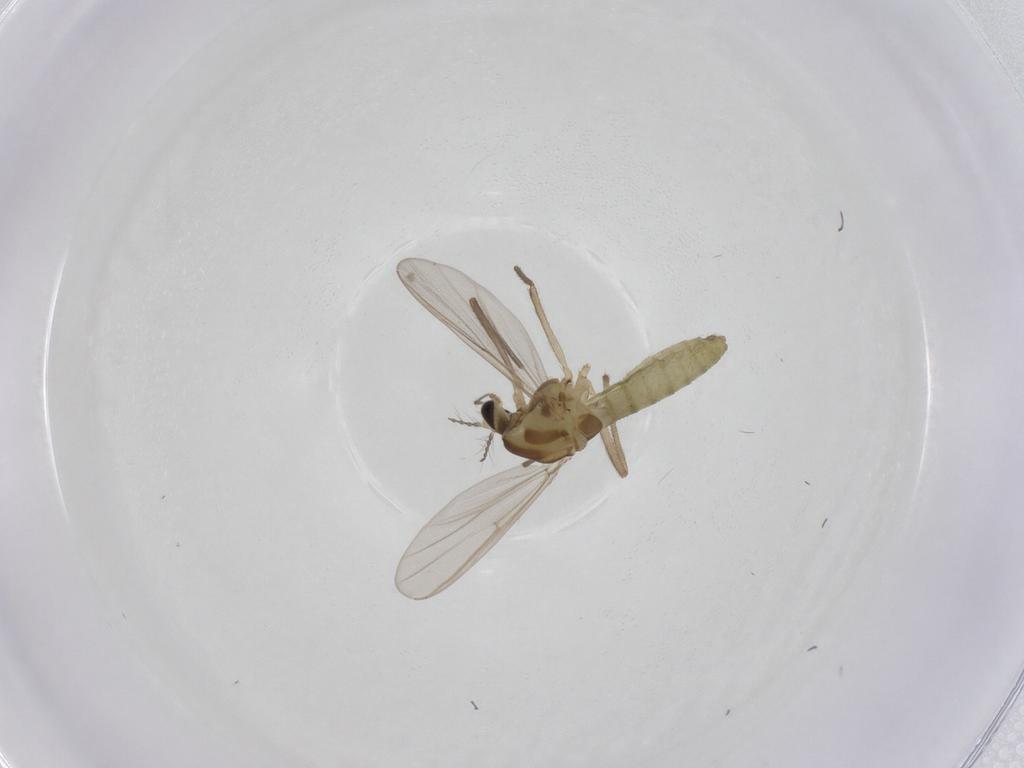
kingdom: Animalia
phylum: Arthropoda
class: Insecta
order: Diptera
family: Chironomidae
